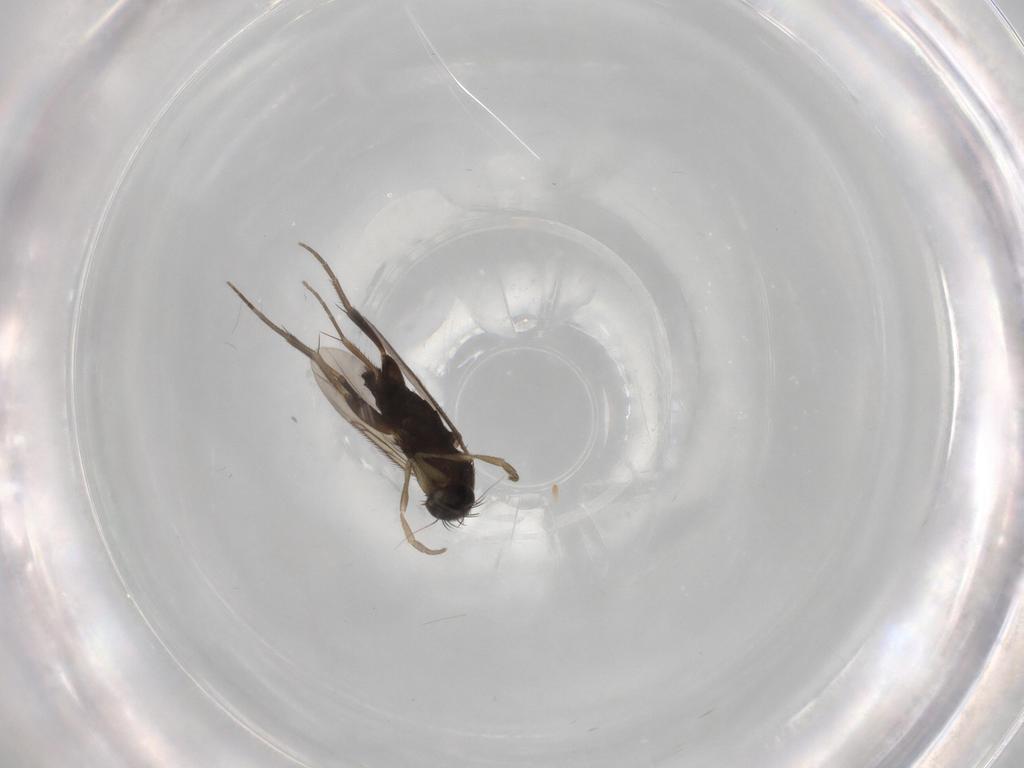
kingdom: Animalia
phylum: Arthropoda
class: Insecta
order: Diptera
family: Phoridae
